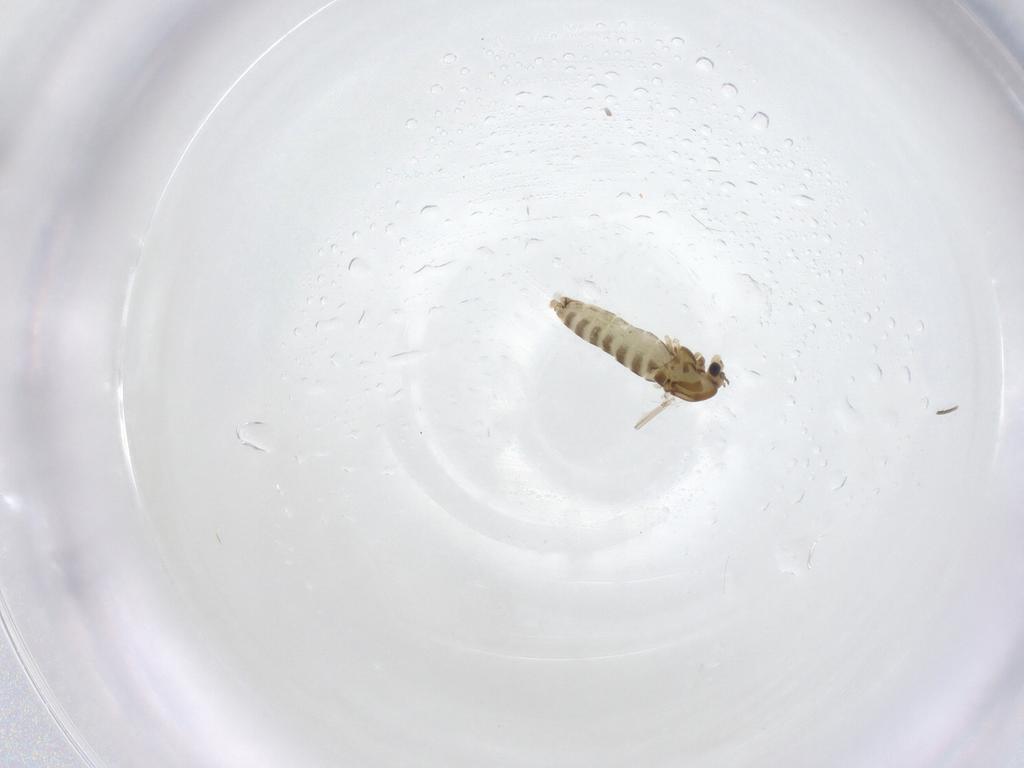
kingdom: Animalia
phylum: Arthropoda
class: Insecta
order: Diptera
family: Chironomidae
